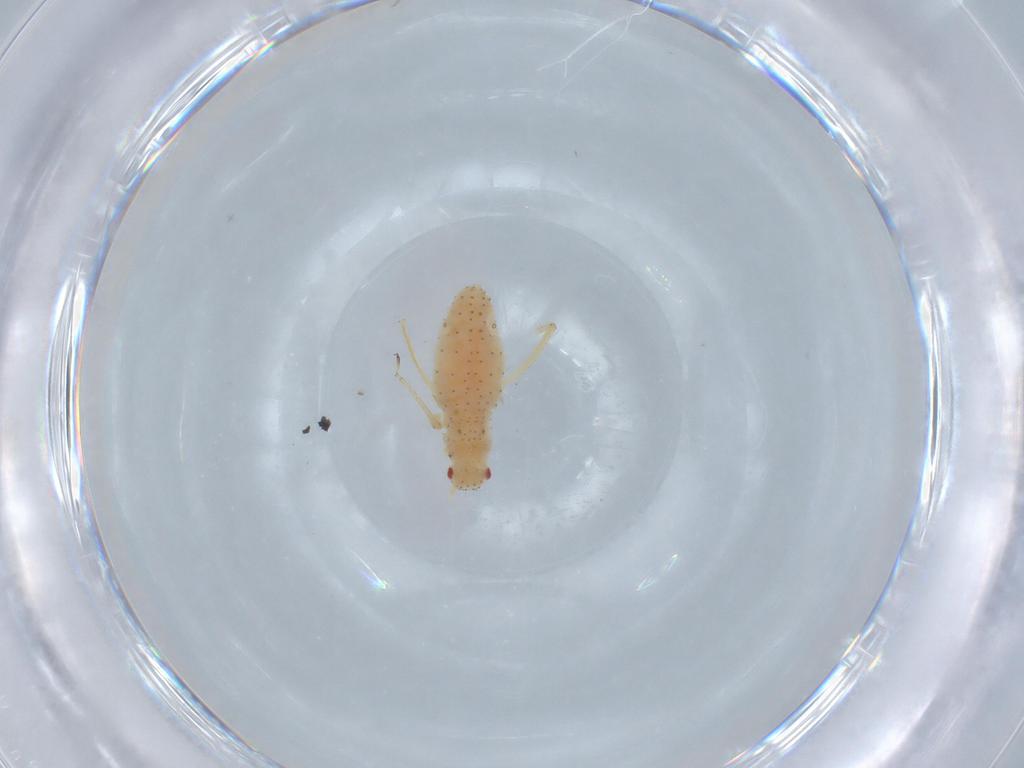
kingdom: Animalia
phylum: Arthropoda
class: Insecta
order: Hemiptera
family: Aphididae
